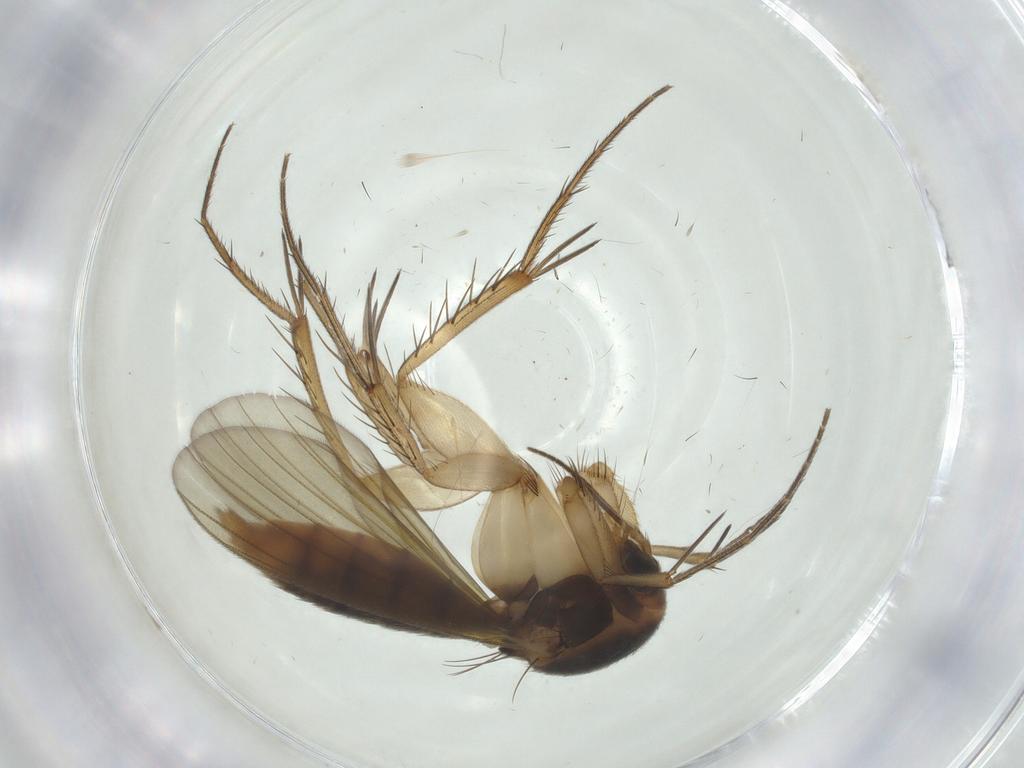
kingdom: Animalia
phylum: Arthropoda
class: Insecta
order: Diptera
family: Mycetophilidae
